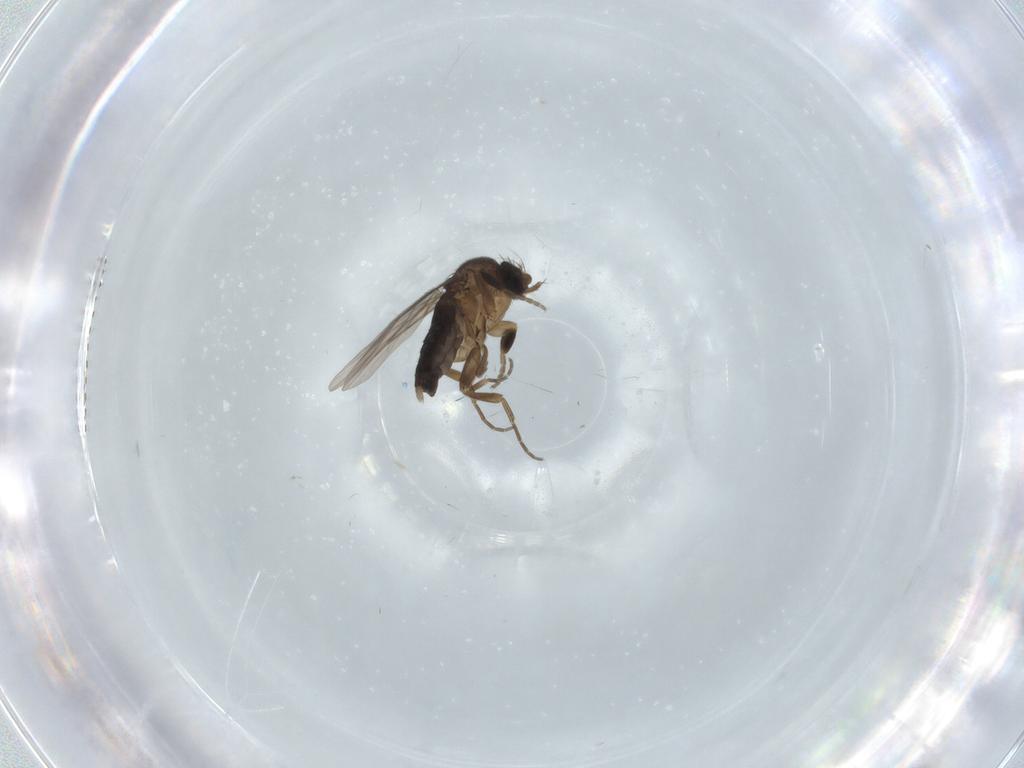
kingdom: Animalia
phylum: Arthropoda
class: Insecta
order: Diptera
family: Phoridae
